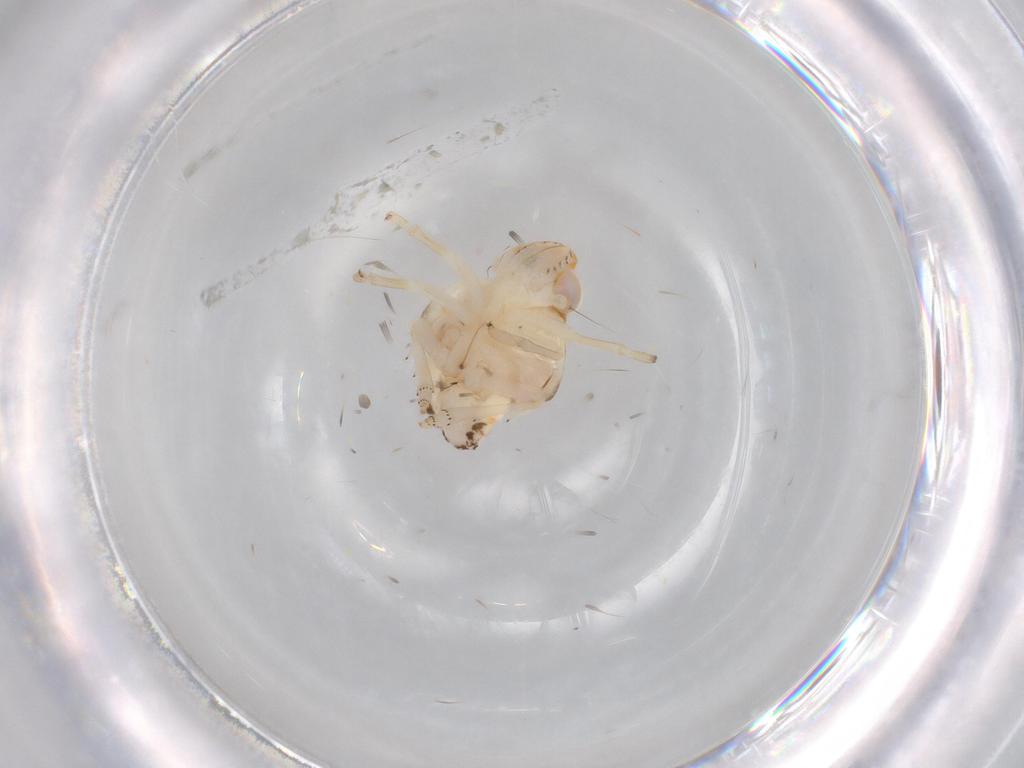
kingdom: Animalia
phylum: Arthropoda
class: Insecta
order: Hemiptera
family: Nogodinidae
